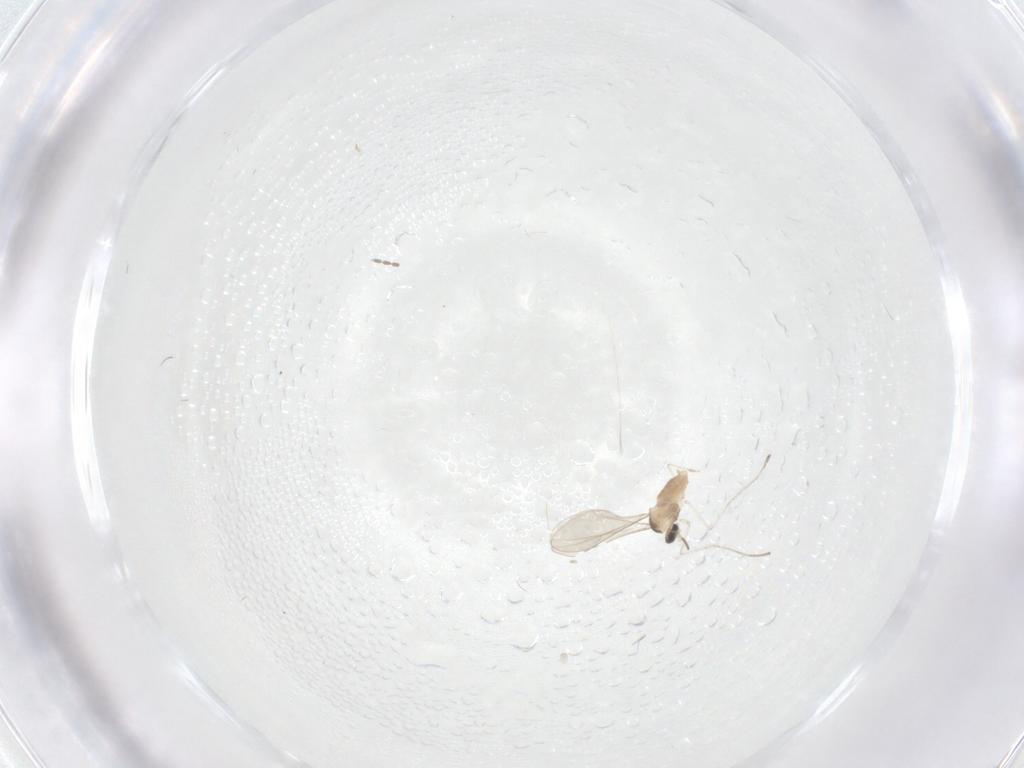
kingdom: Animalia
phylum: Arthropoda
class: Insecta
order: Diptera
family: Cecidomyiidae
